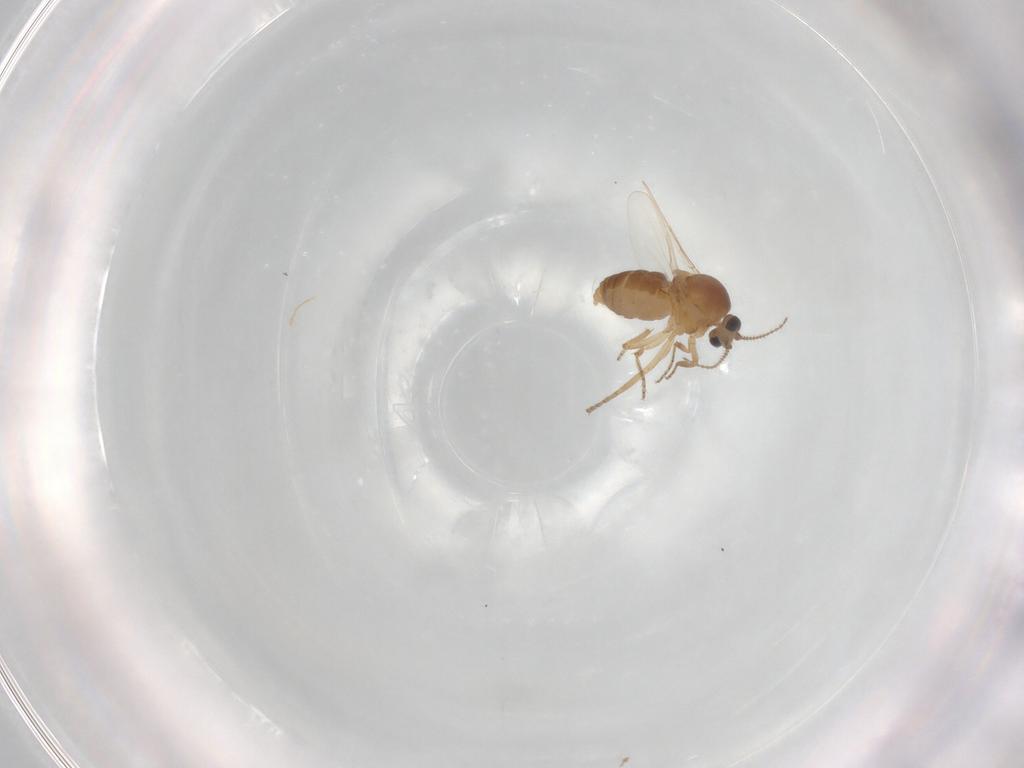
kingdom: Animalia
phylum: Arthropoda
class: Insecta
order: Diptera
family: Ceratopogonidae
